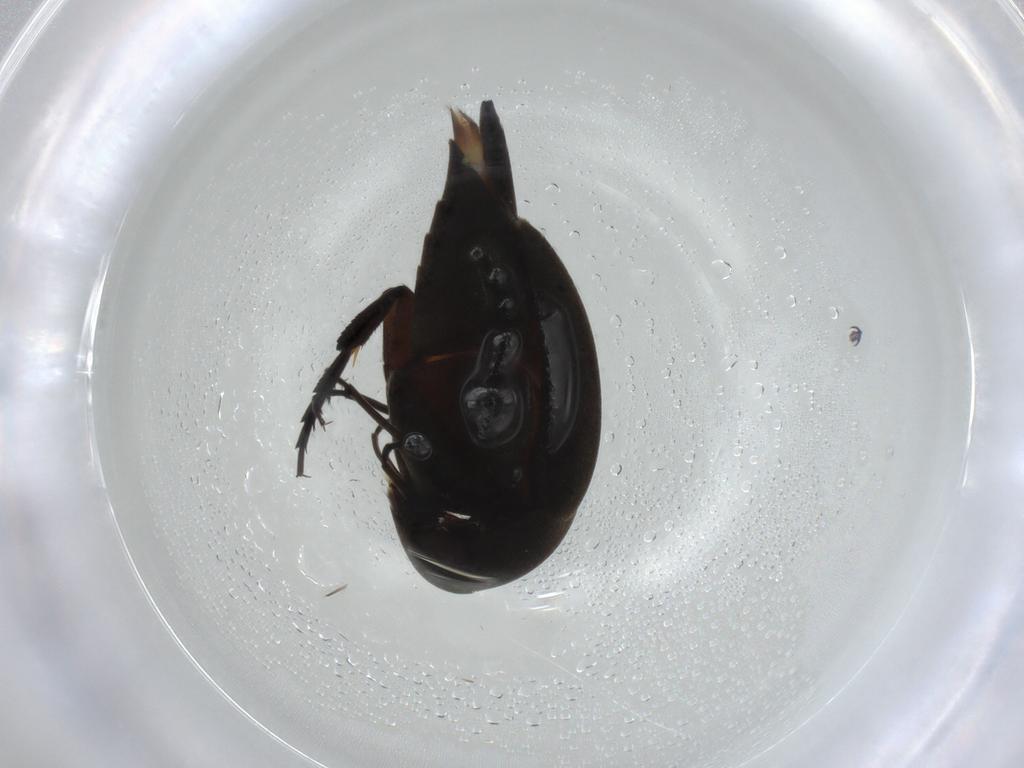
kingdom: Animalia
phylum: Arthropoda
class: Insecta
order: Coleoptera
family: Mordellidae
